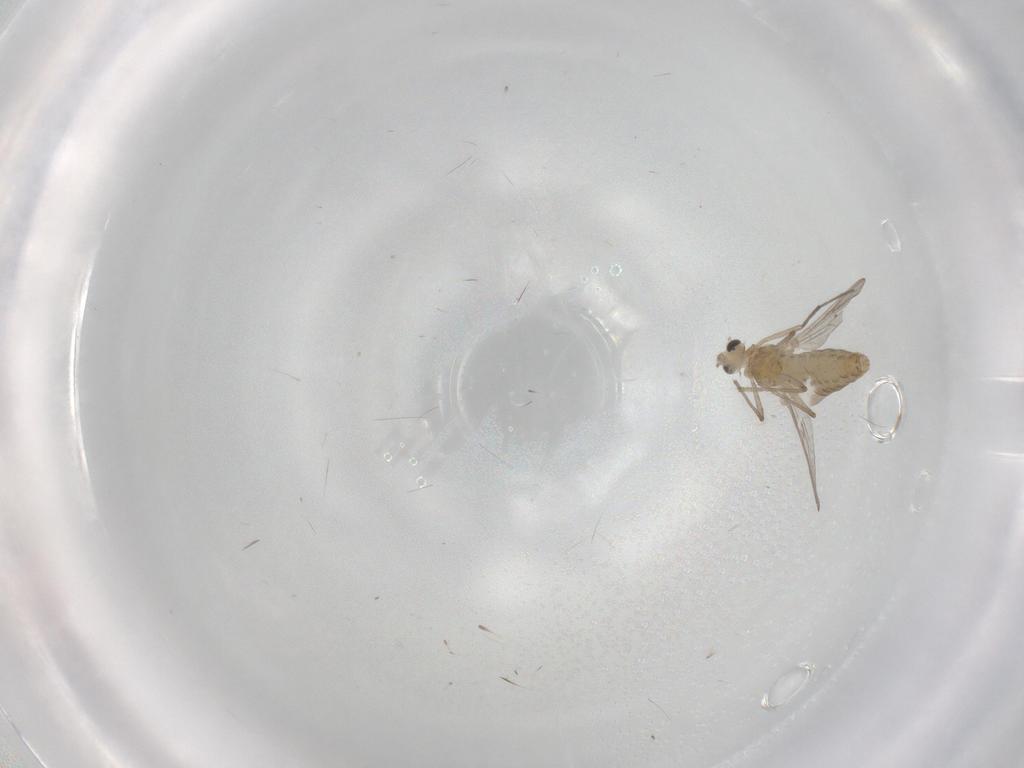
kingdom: Animalia
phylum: Arthropoda
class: Insecta
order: Diptera
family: Chironomidae
